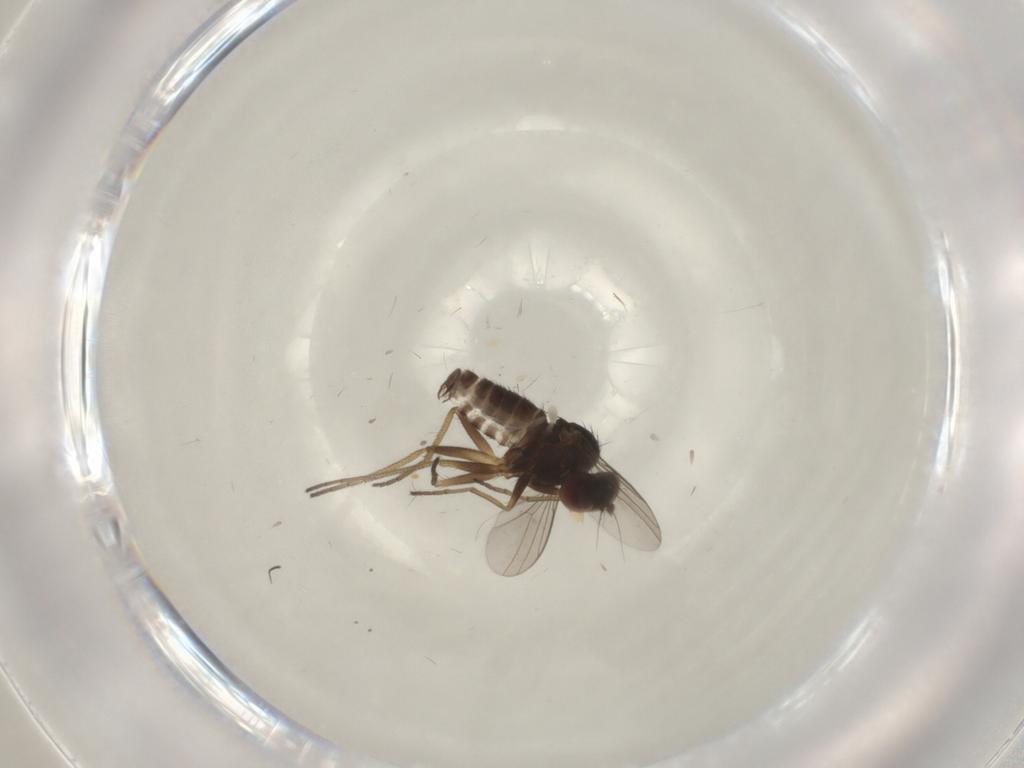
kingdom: Animalia
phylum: Arthropoda
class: Insecta
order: Diptera
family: Dolichopodidae
